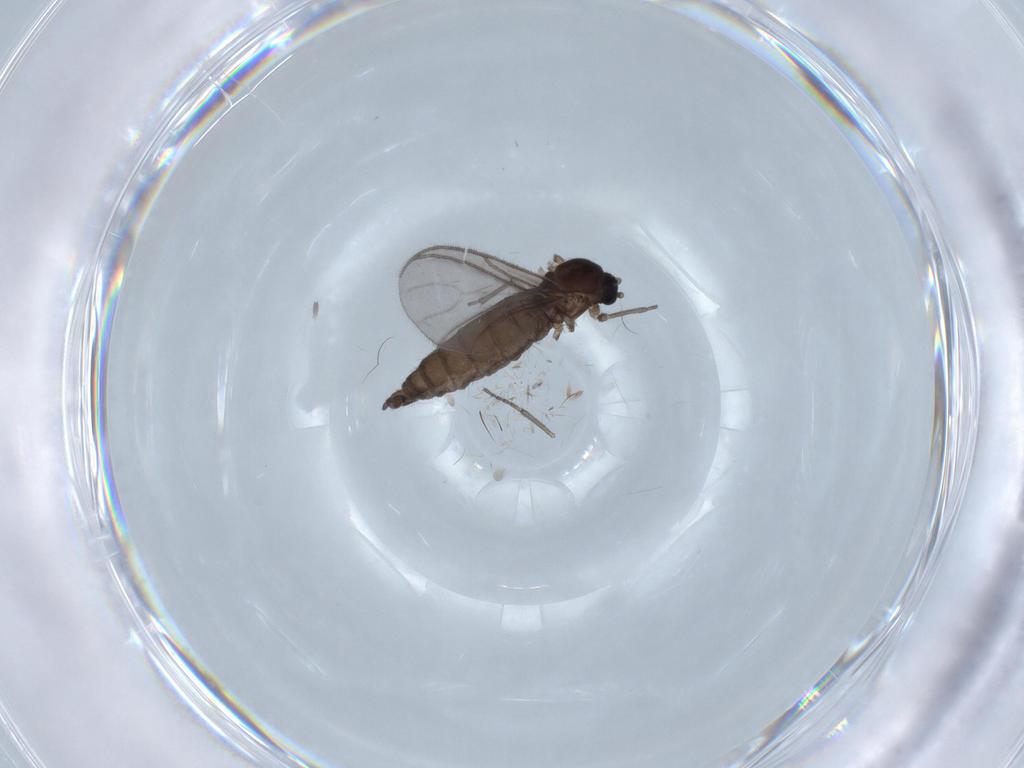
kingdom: Animalia
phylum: Arthropoda
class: Insecta
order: Diptera
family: Sciaridae
